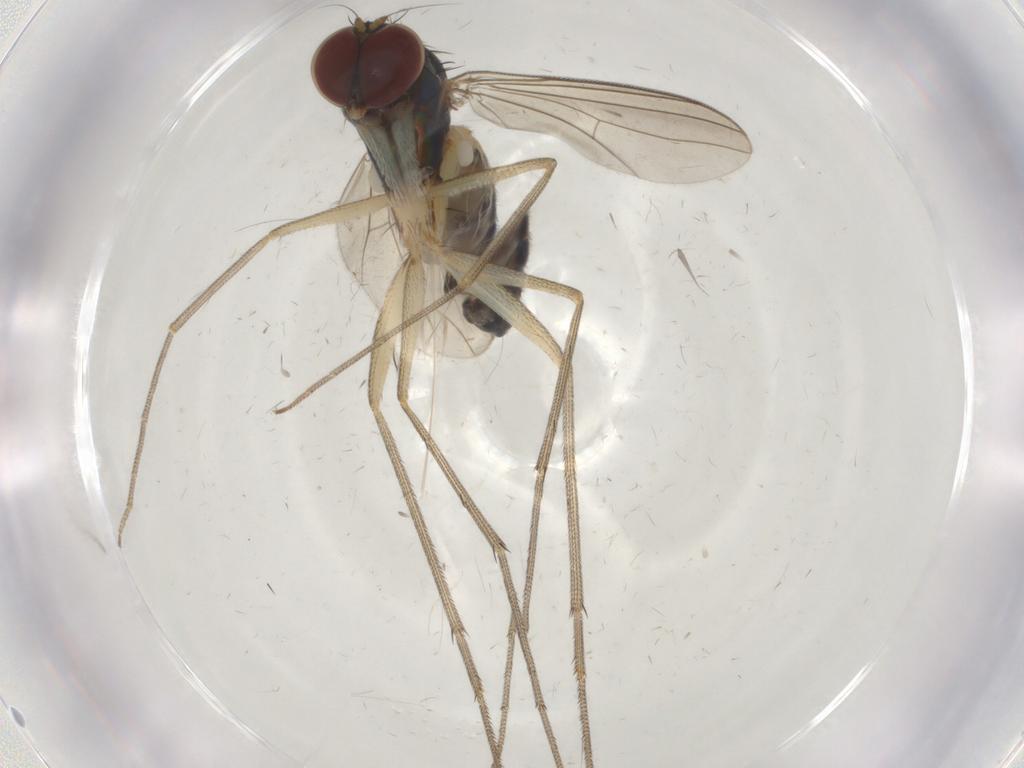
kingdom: Animalia
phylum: Arthropoda
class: Insecta
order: Diptera
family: Dolichopodidae
